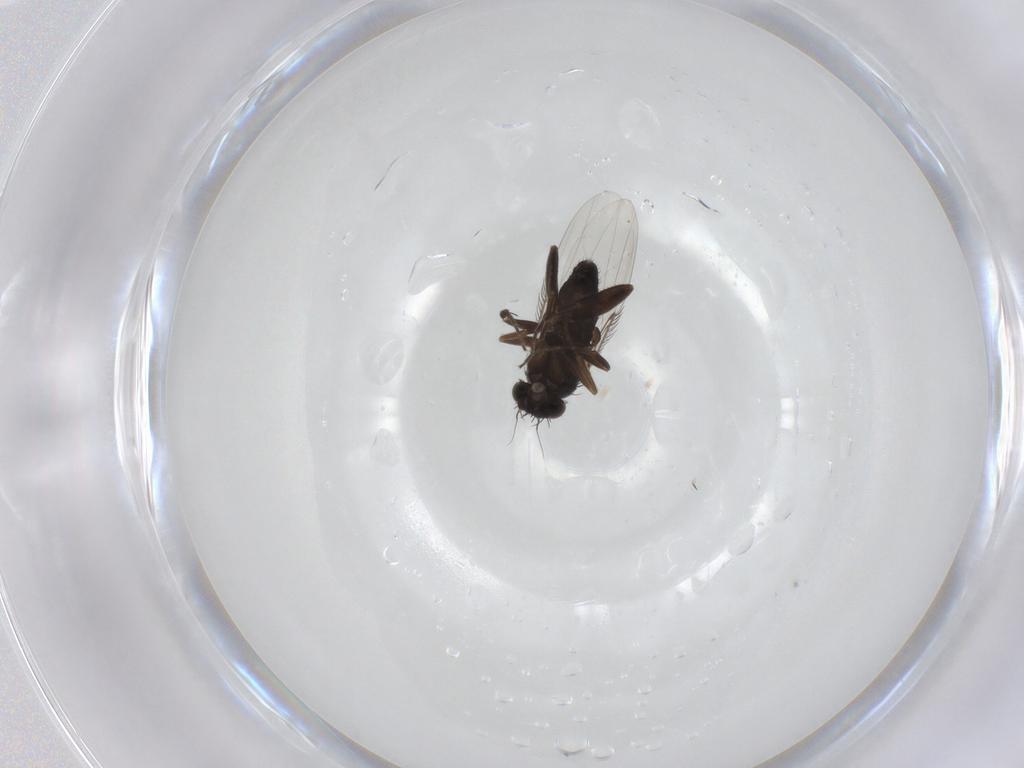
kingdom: Animalia
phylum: Arthropoda
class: Insecta
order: Diptera
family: Phoridae
